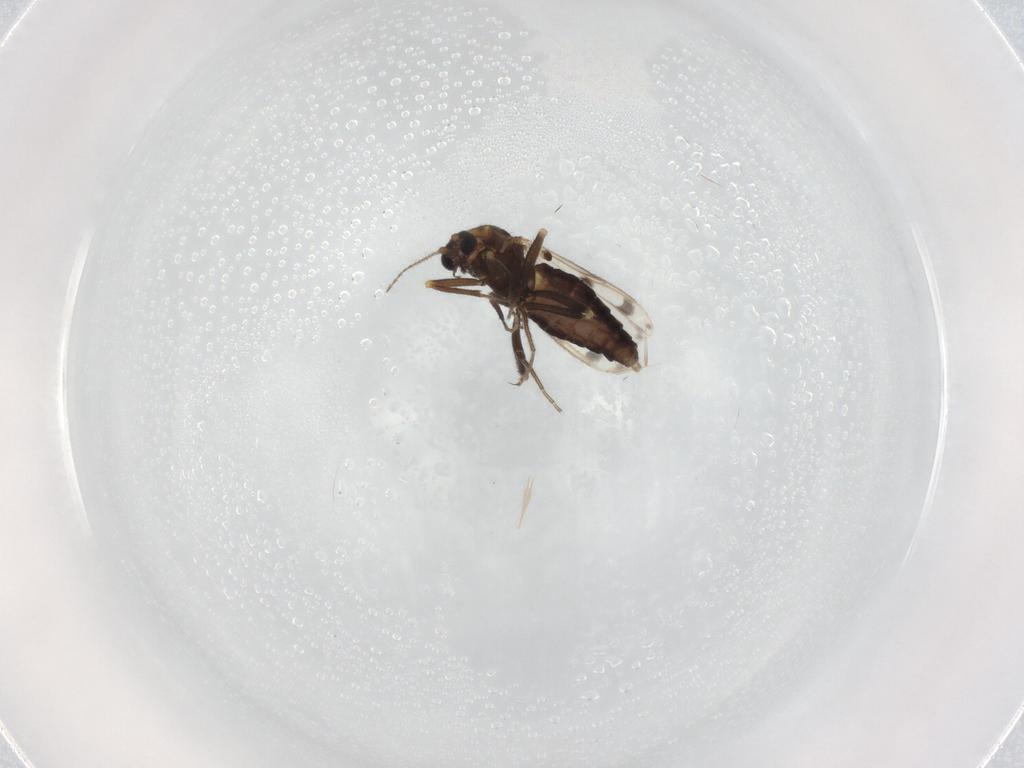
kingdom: Animalia
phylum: Arthropoda
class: Insecta
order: Diptera
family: Ceratopogonidae
